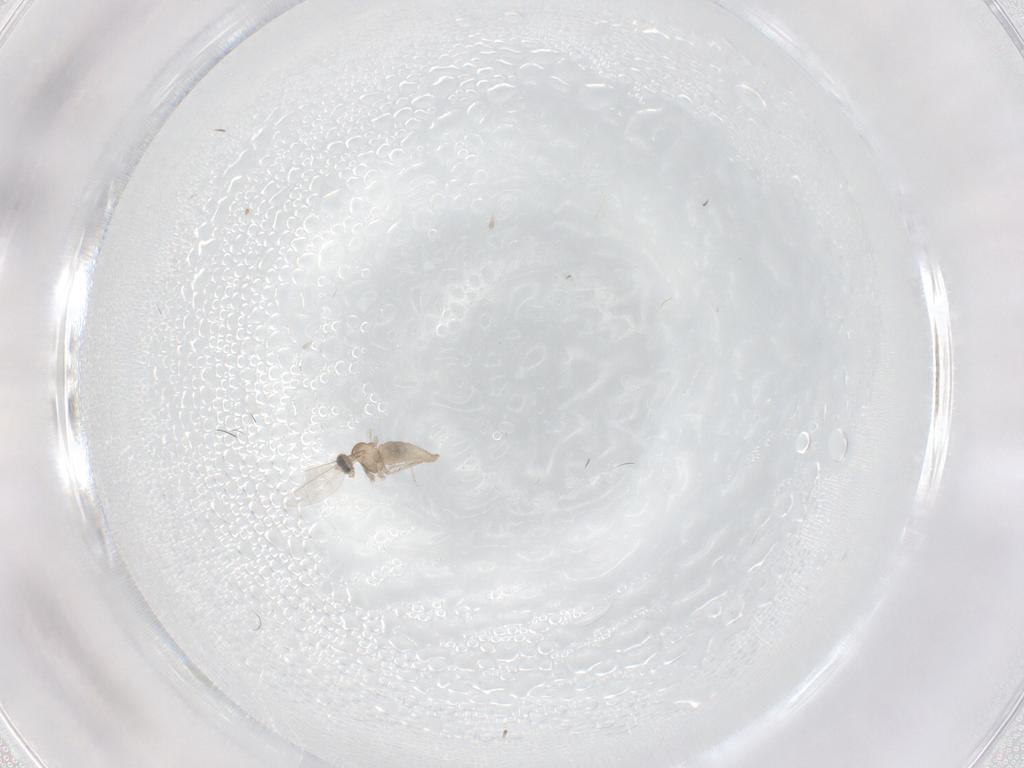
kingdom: Animalia
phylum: Arthropoda
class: Insecta
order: Diptera
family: Cecidomyiidae
